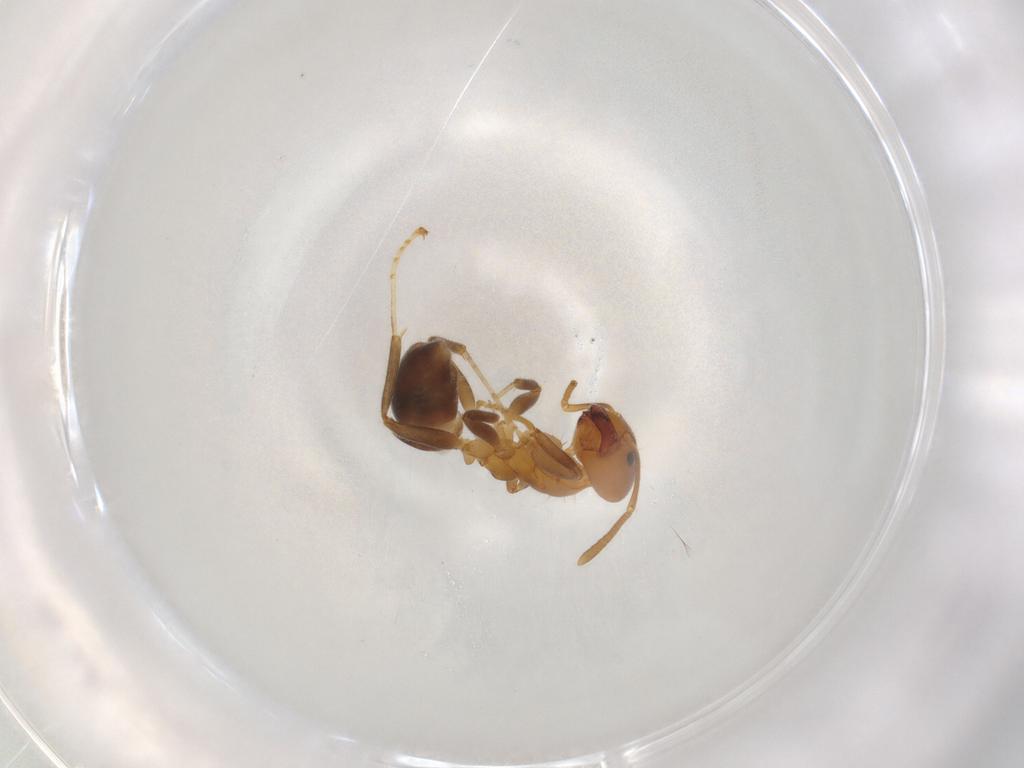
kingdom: Animalia
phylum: Arthropoda
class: Insecta
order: Hymenoptera
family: Formicidae
